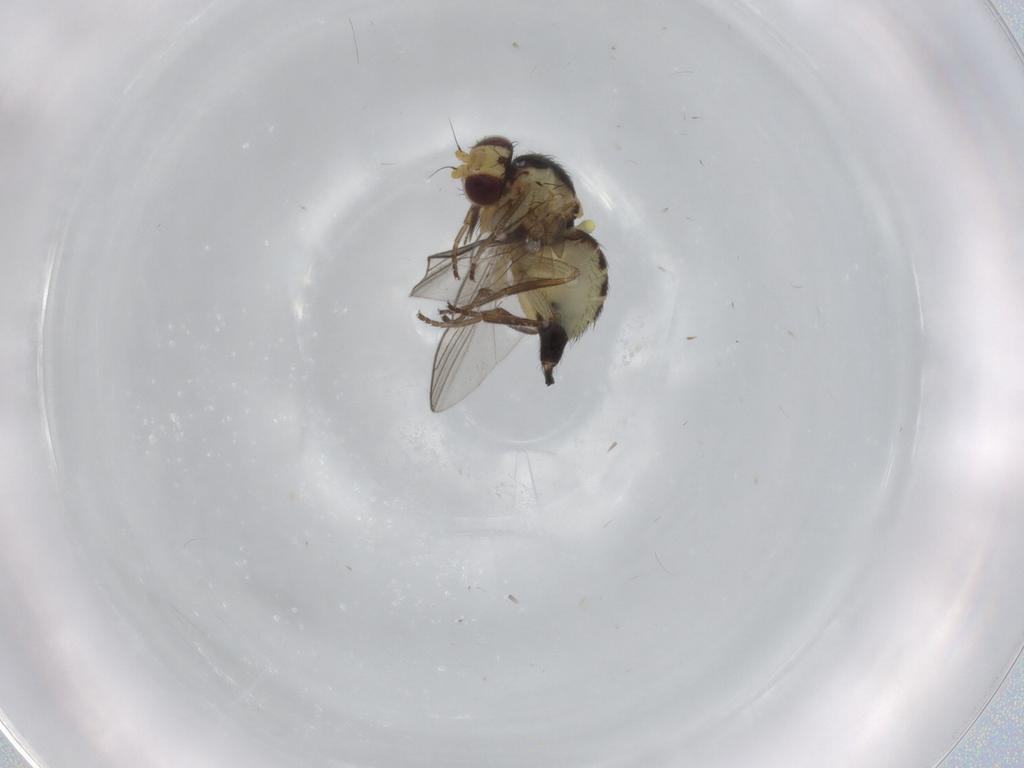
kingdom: Animalia
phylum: Arthropoda
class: Insecta
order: Diptera
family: Agromyzidae
